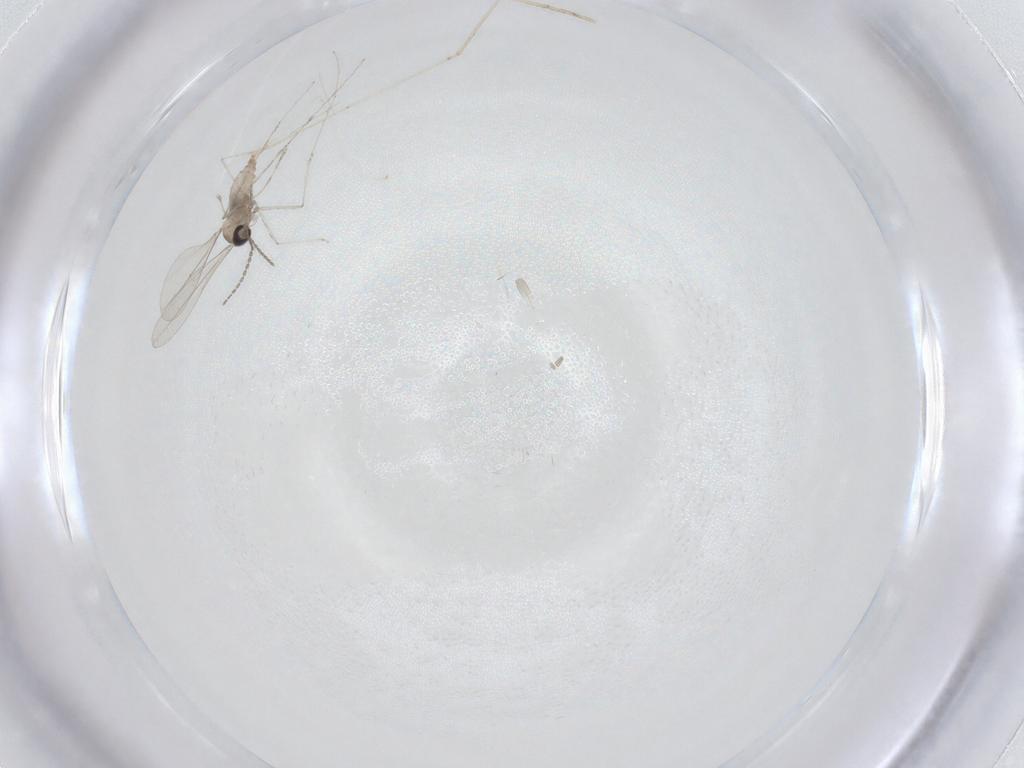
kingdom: Animalia
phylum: Arthropoda
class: Insecta
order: Diptera
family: Cecidomyiidae
